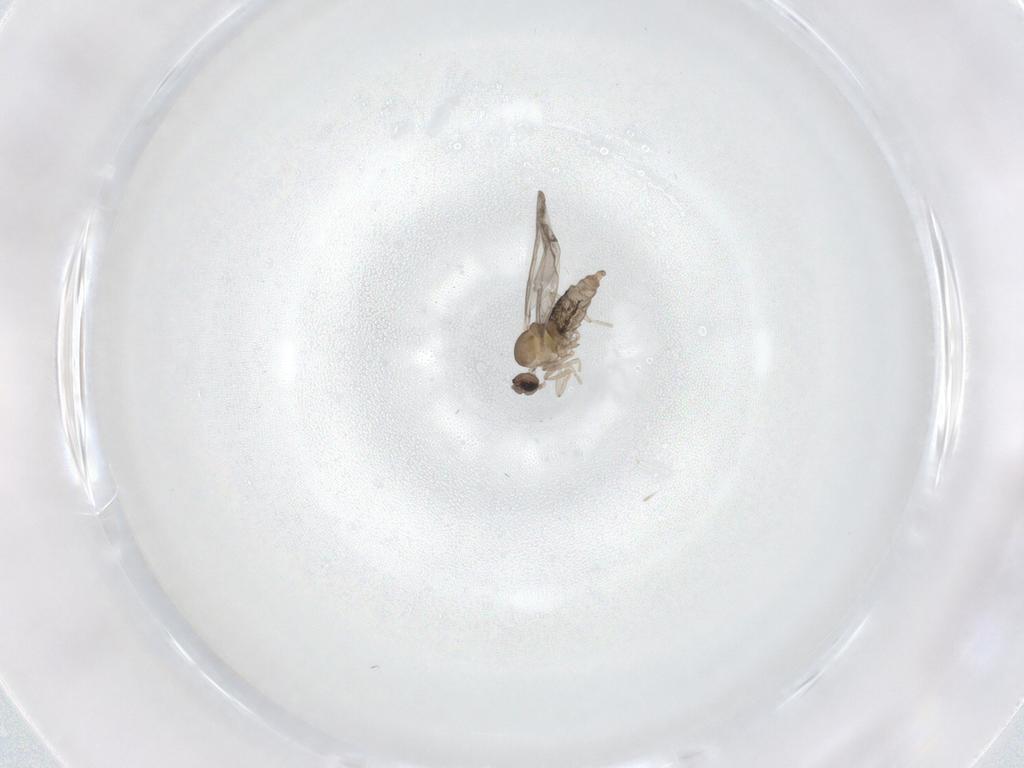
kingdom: Animalia
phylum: Arthropoda
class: Insecta
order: Diptera
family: Cecidomyiidae
